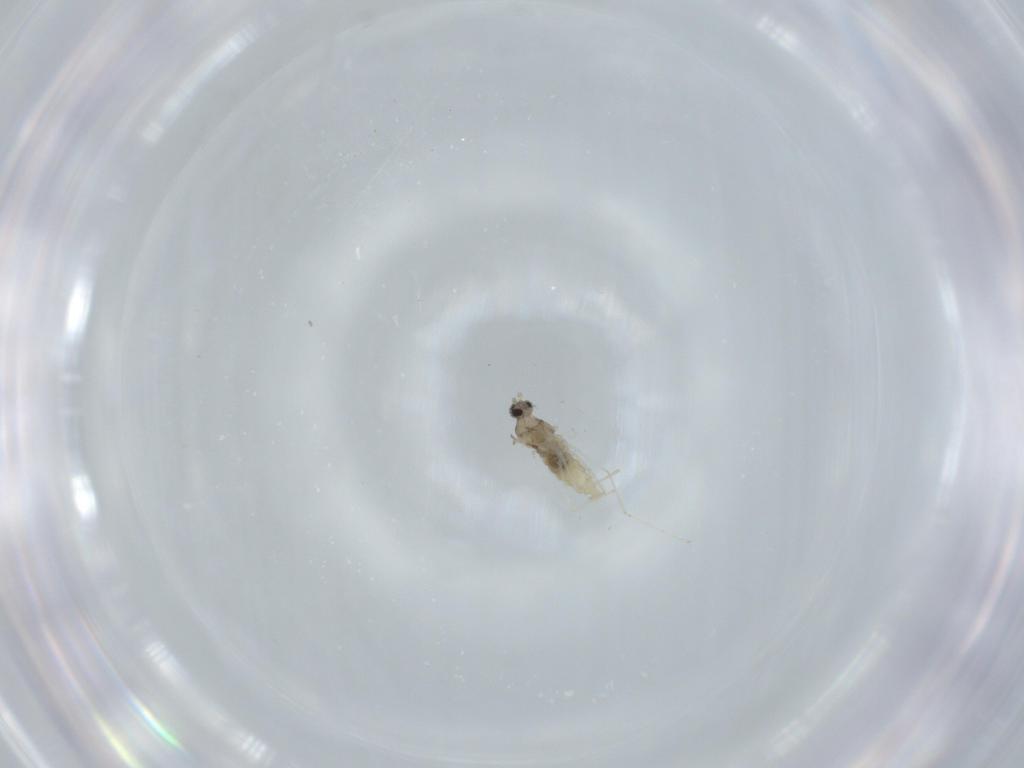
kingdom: Animalia
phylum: Arthropoda
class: Insecta
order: Diptera
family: Cecidomyiidae
